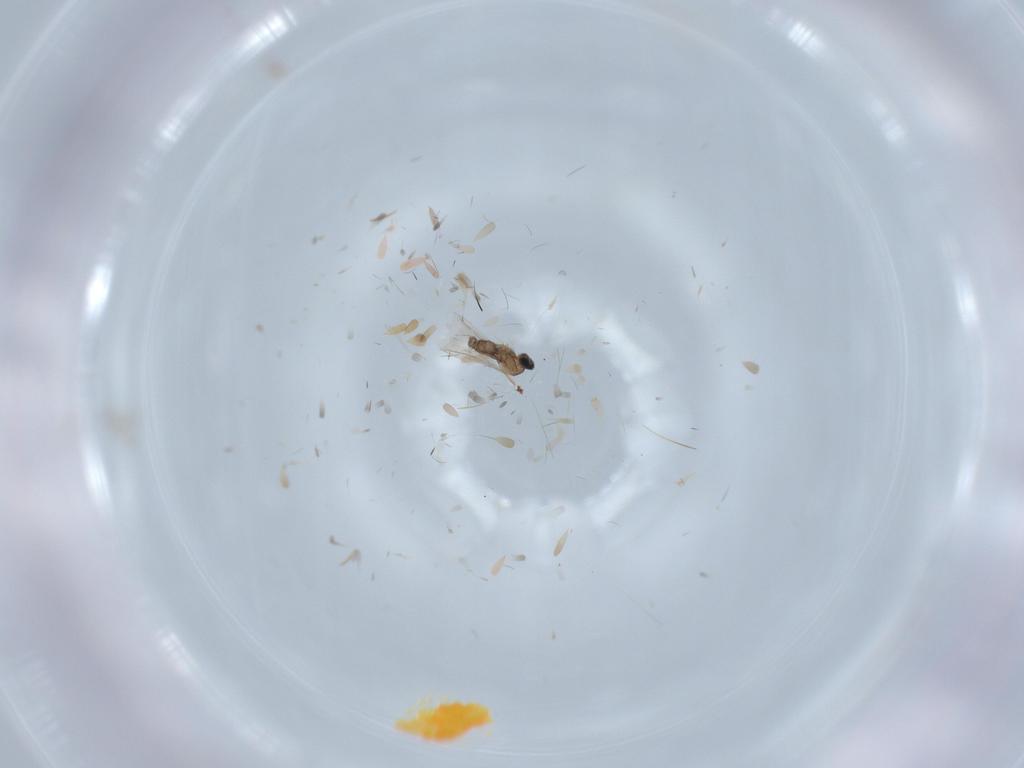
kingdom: Animalia
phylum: Arthropoda
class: Insecta
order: Diptera
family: Cecidomyiidae
